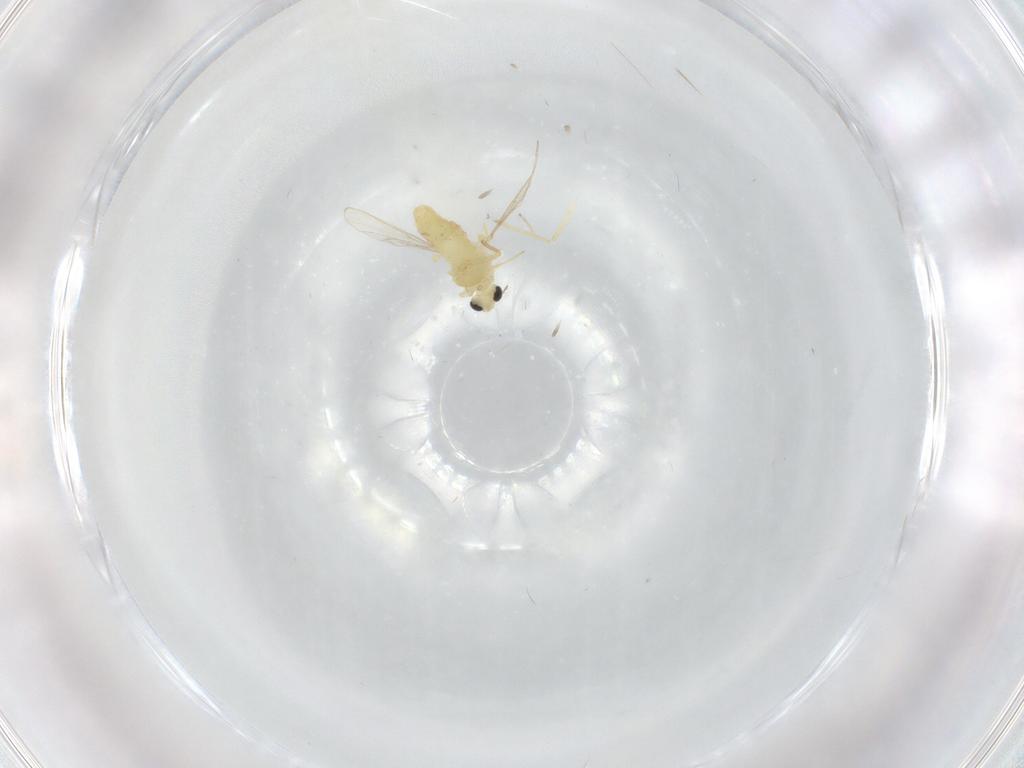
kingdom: Animalia
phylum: Arthropoda
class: Insecta
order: Diptera
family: Chironomidae
